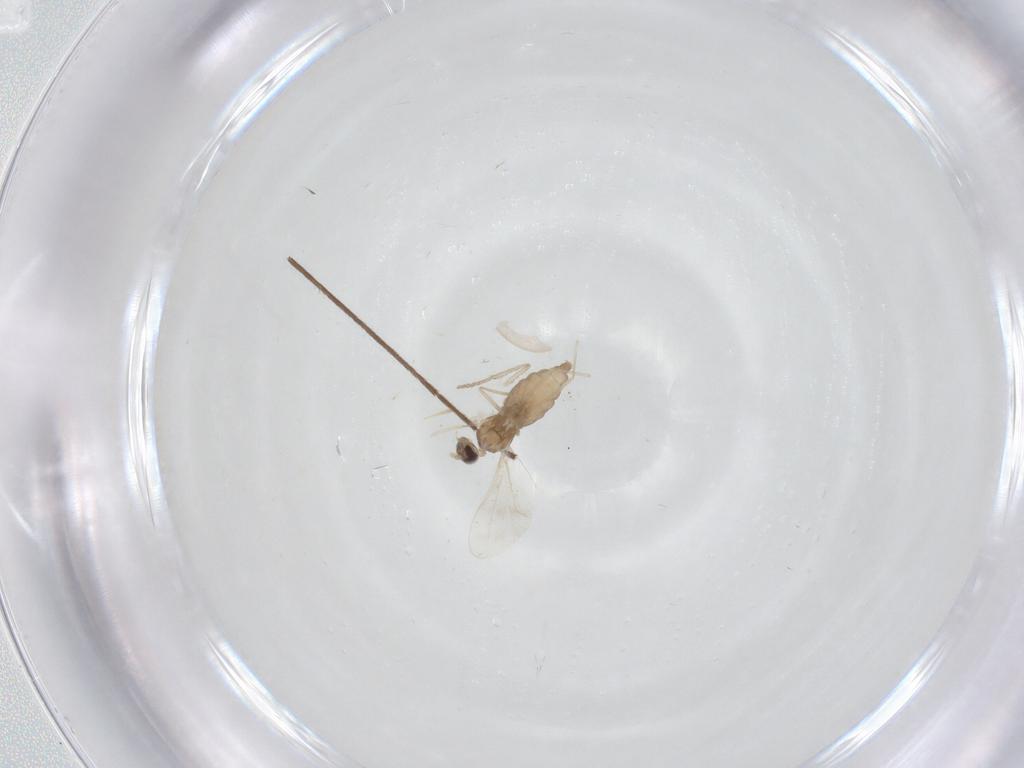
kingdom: Animalia
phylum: Arthropoda
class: Insecta
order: Diptera
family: Cecidomyiidae
